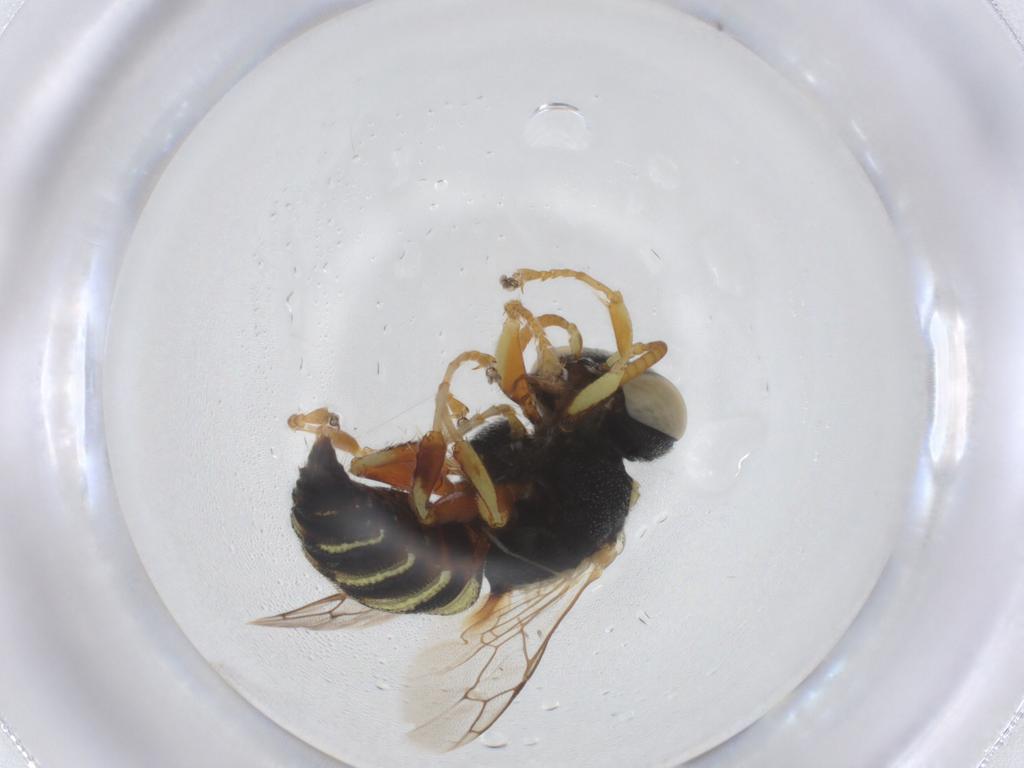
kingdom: Animalia
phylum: Arthropoda
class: Insecta
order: Hymenoptera
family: Crabronidae
